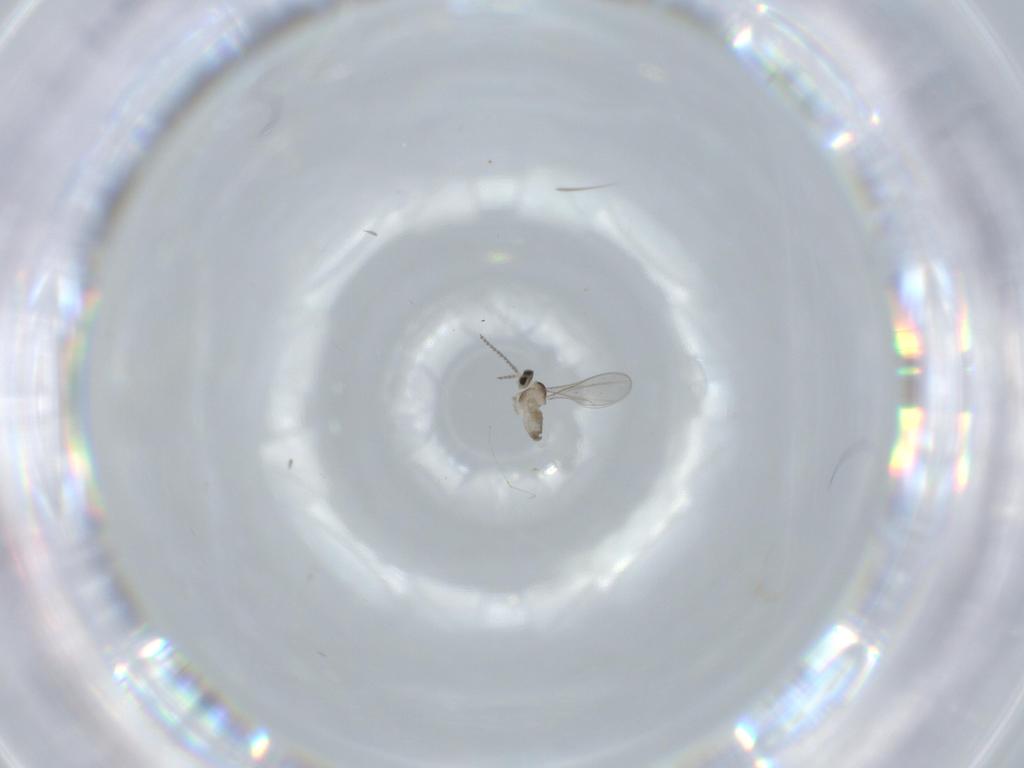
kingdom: Animalia
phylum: Arthropoda
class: Insecta
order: Diptera
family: Cecidomyiidae
